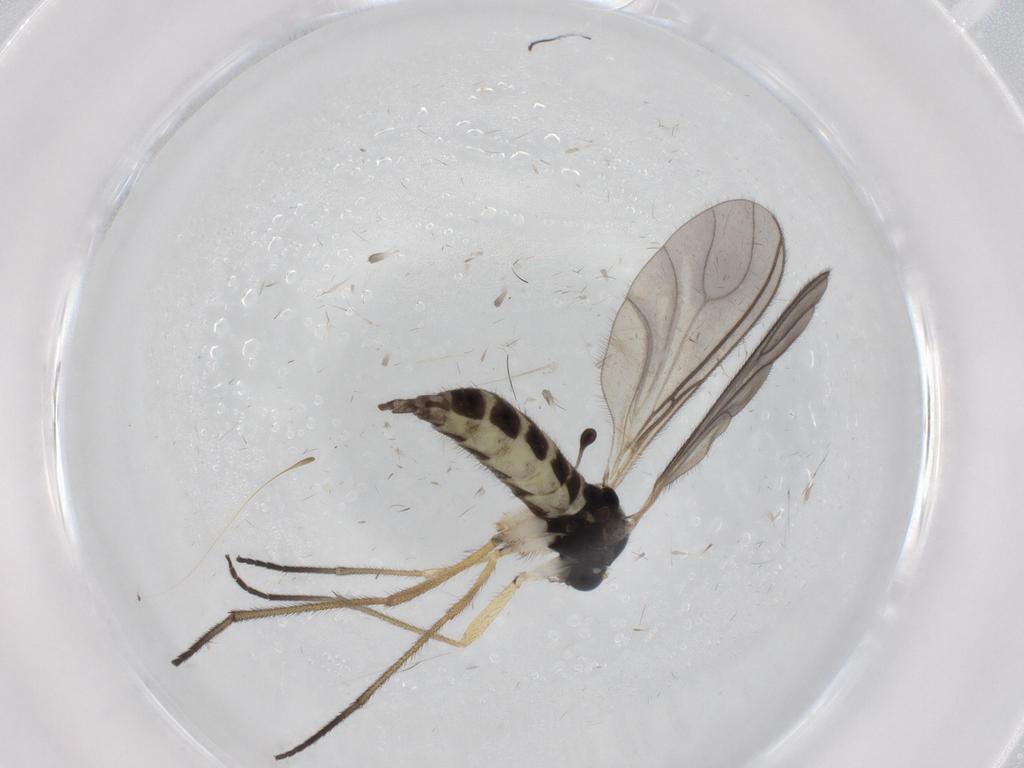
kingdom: Animalia
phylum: Arthropoda
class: Insecta
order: Diptera
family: Sciaridae
